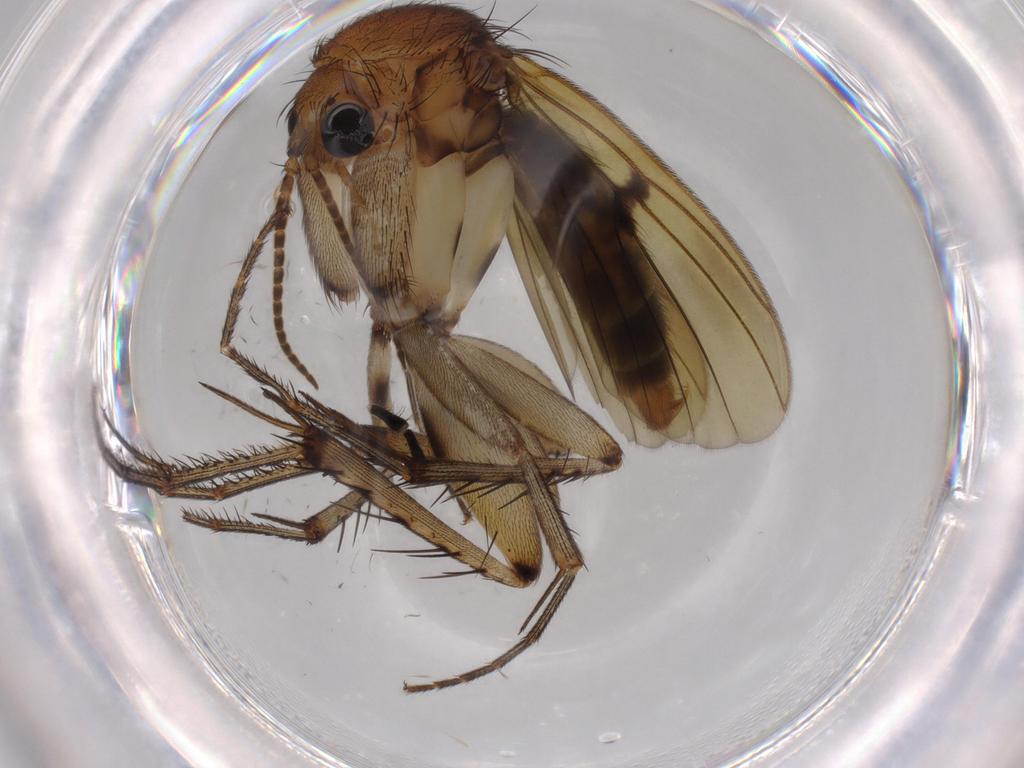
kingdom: Animalia
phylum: Arthropoda
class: Insecta
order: Diptera
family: Bibionidae
